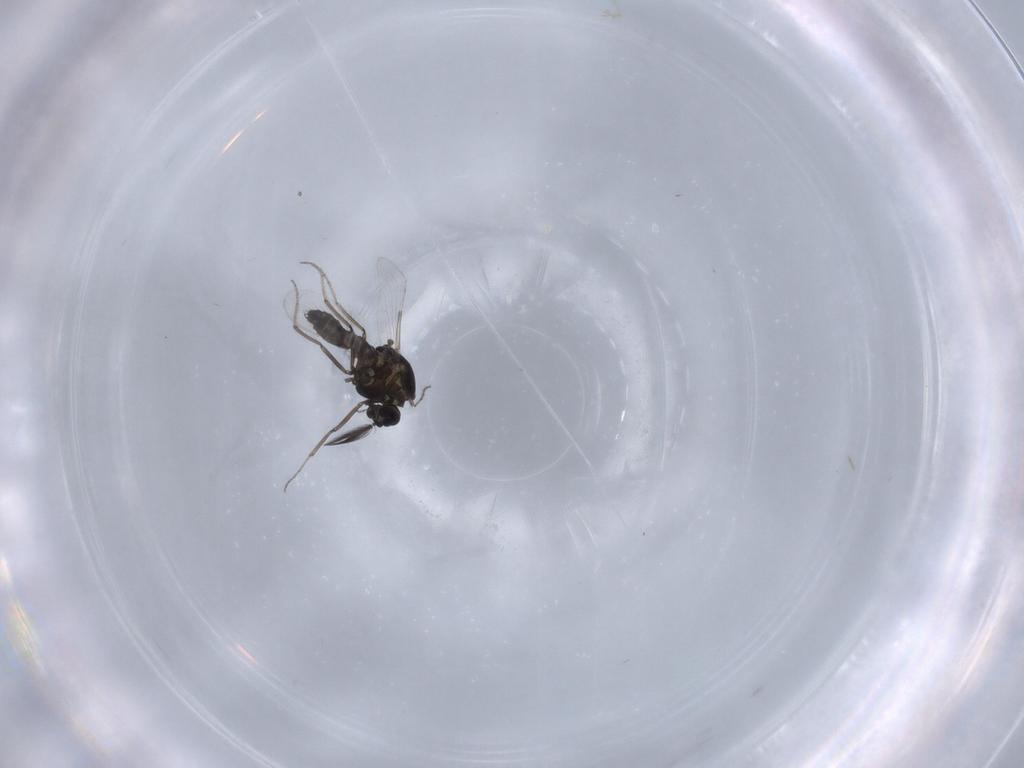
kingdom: Animalia
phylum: Arthropoda
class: Insecta
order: Diptera
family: Ceratopogonidae
